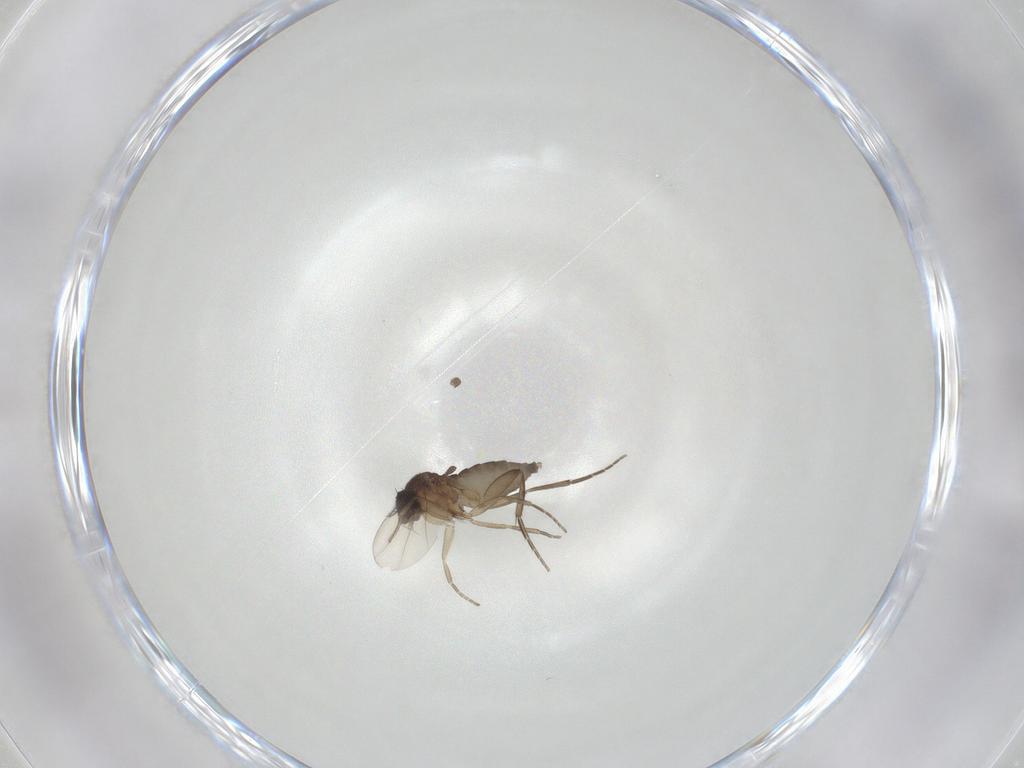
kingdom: Animalia
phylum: Arthropoda
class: Insecta
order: Diptera
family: Phoridae
